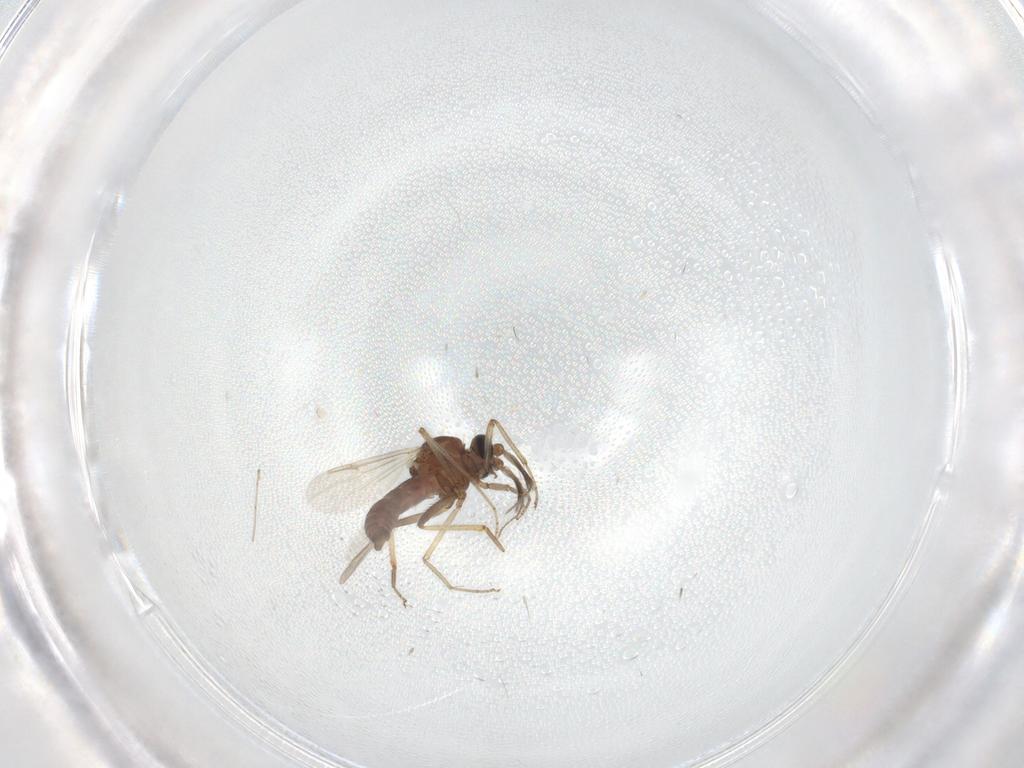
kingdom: Animalia
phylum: Arthropoda
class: Insecta
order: Diptera
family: Ceratopogonidae
